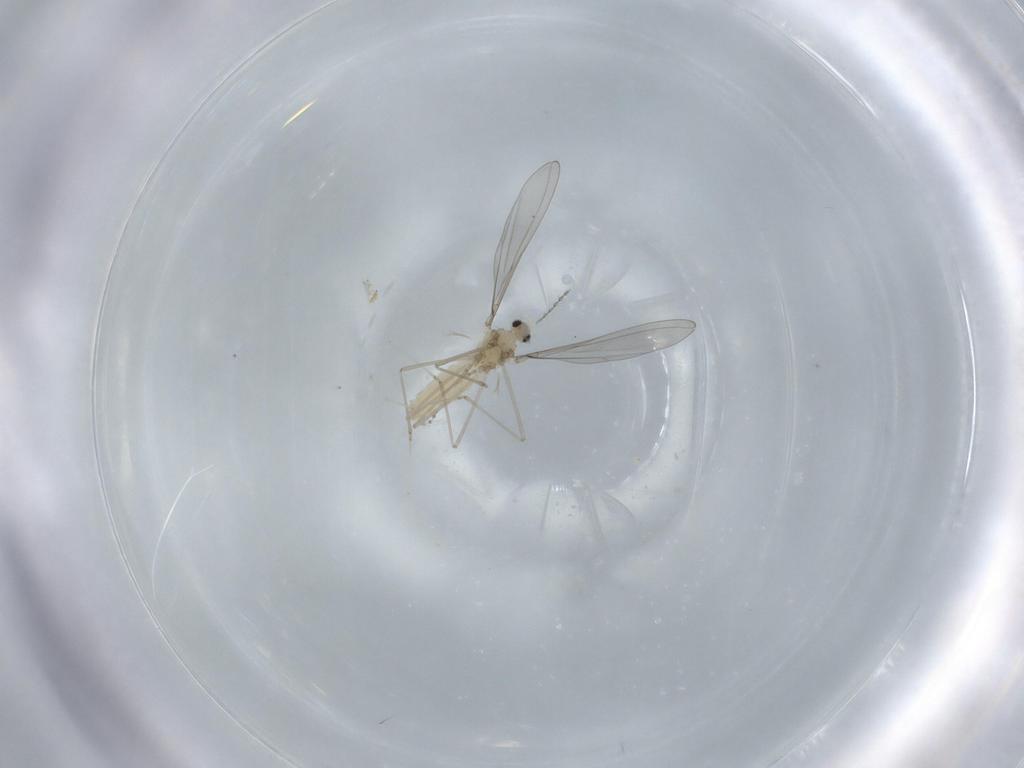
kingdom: Animalia
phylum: Arthropoda
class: Insecta
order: Diptera
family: Cecidomyiidae
